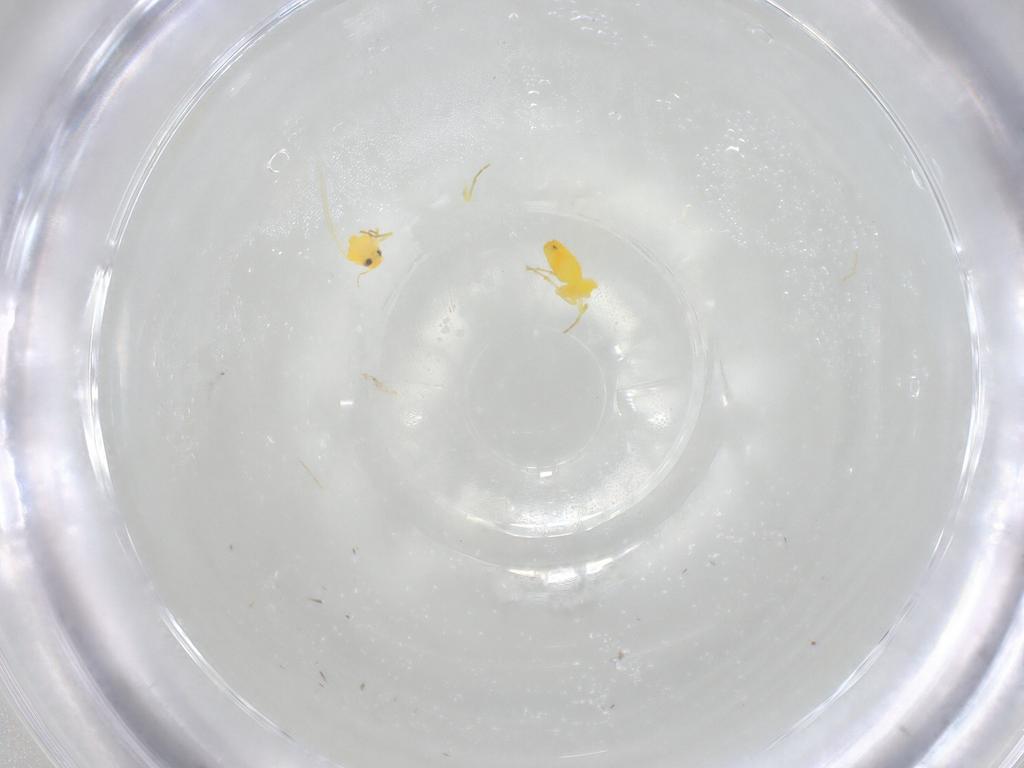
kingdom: Animalia
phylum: Arthropoda
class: Insecta
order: Hemiptera
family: Aleyrodidae
